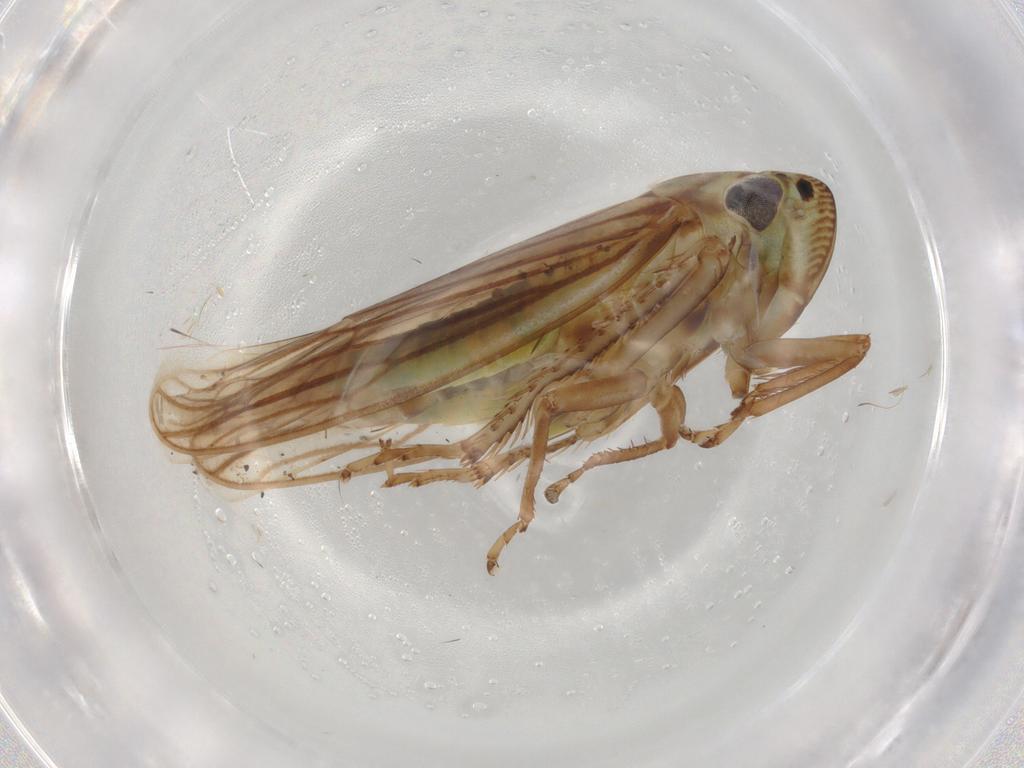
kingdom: Animalia
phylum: Arthropoda
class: Insecta
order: Hemiptera
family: Cicadellidae
